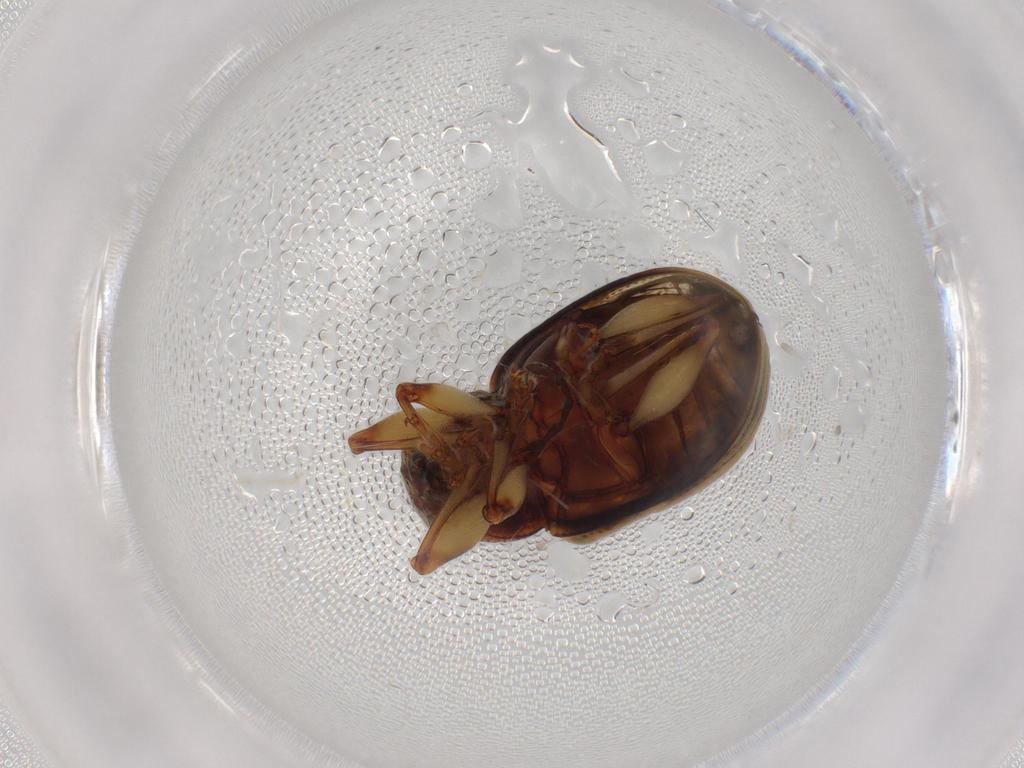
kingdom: Animalia
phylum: Arthropoda
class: Insecta
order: Coleoptera
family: Chrysomelidae
